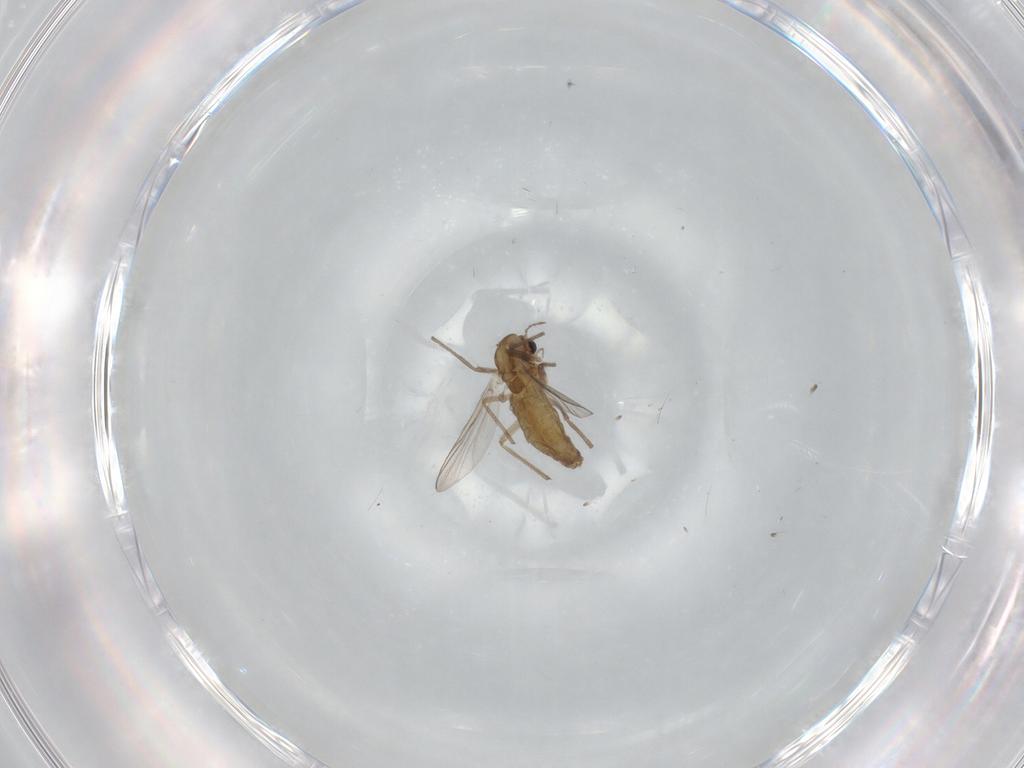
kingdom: Animalia
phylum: Arthropoda
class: Insecta
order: Diptera
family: Chironomidae
